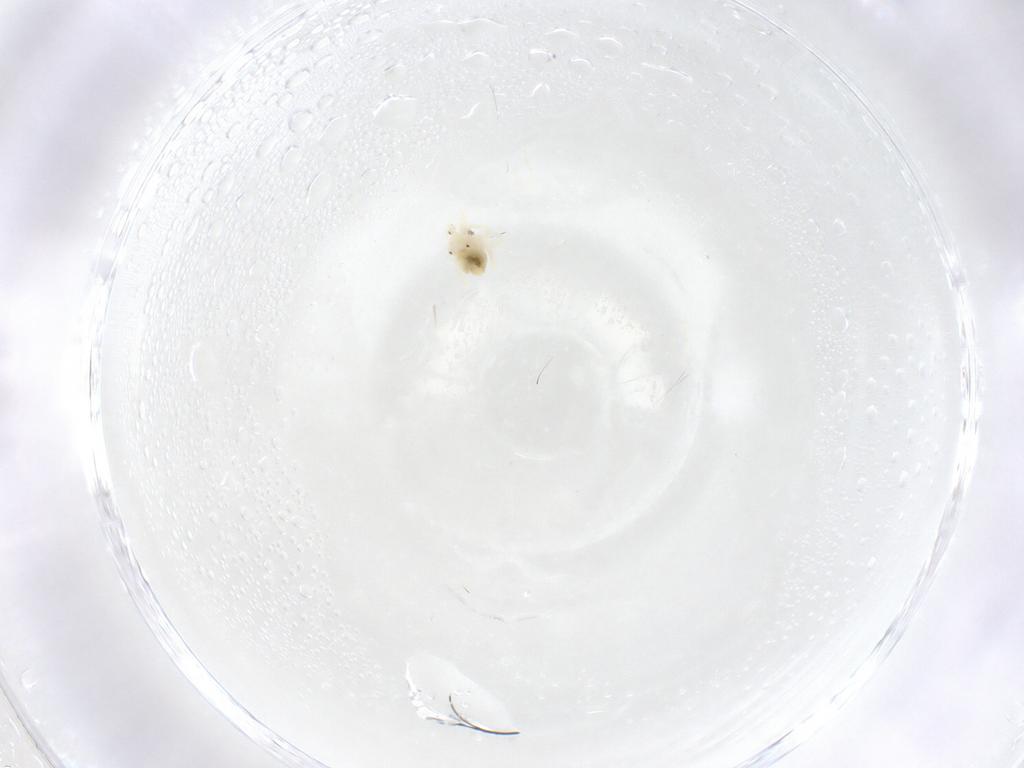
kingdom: Animalia
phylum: Arthropoda
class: Arachnida
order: Trombidiformes
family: Anystidae
